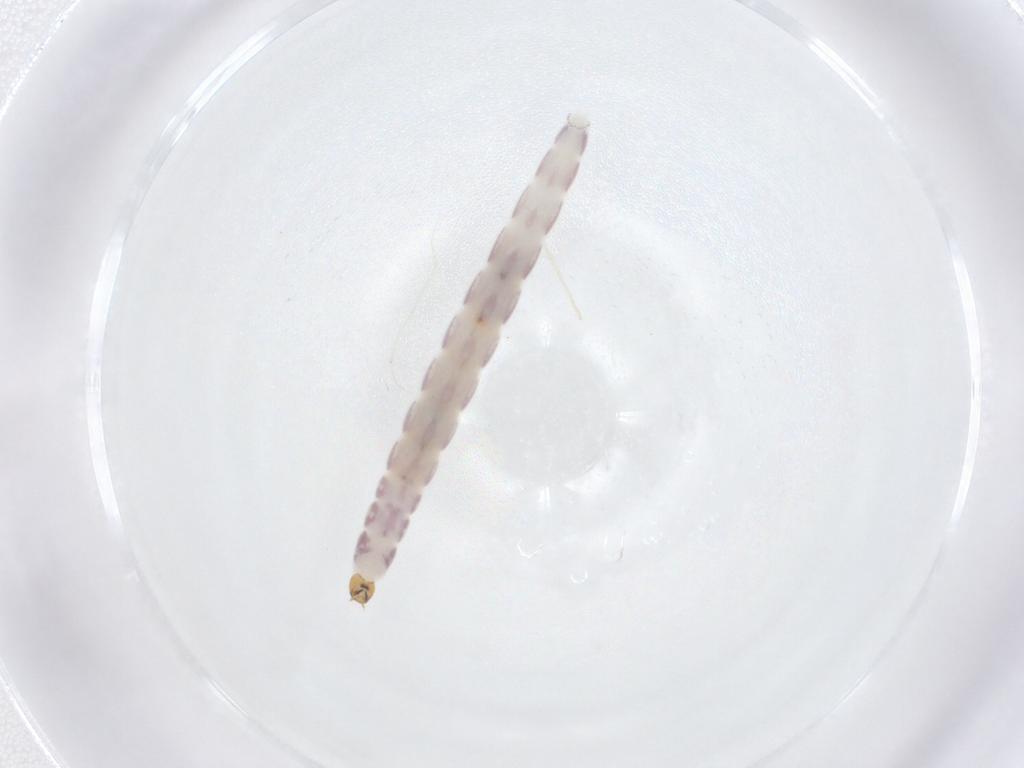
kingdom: Animalia
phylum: Arthropoda
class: Insecta
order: Diptera
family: Chironomidae
